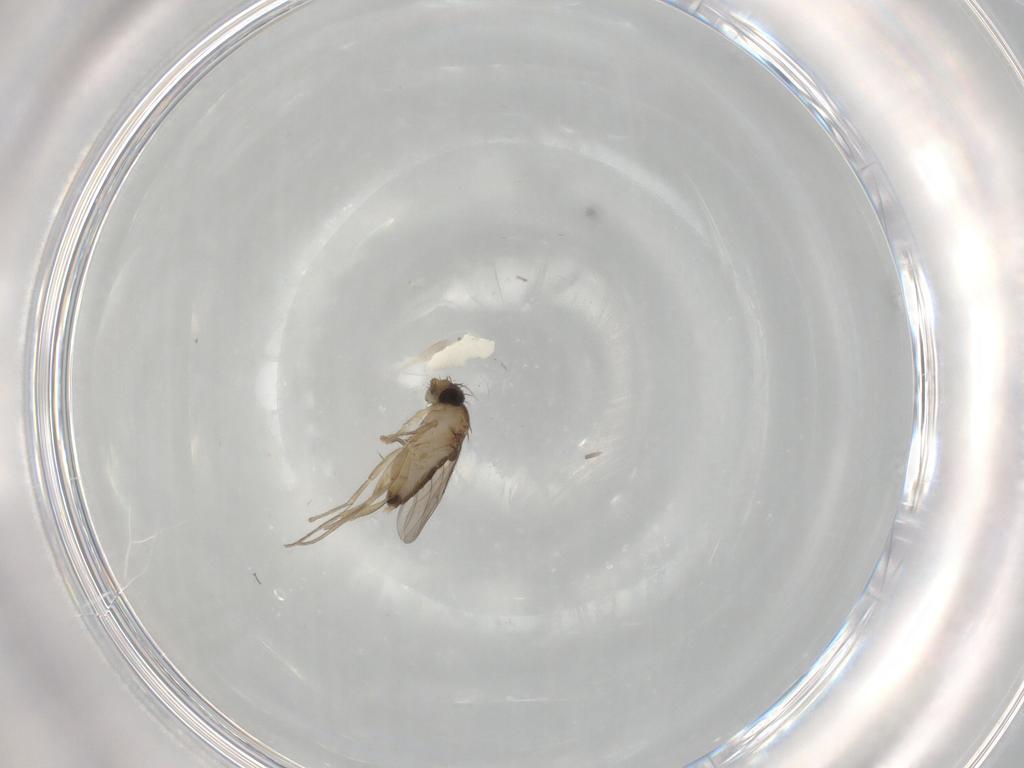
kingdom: Animalia
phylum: Arthropoda
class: Insecta
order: Diptera
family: Phoridae
